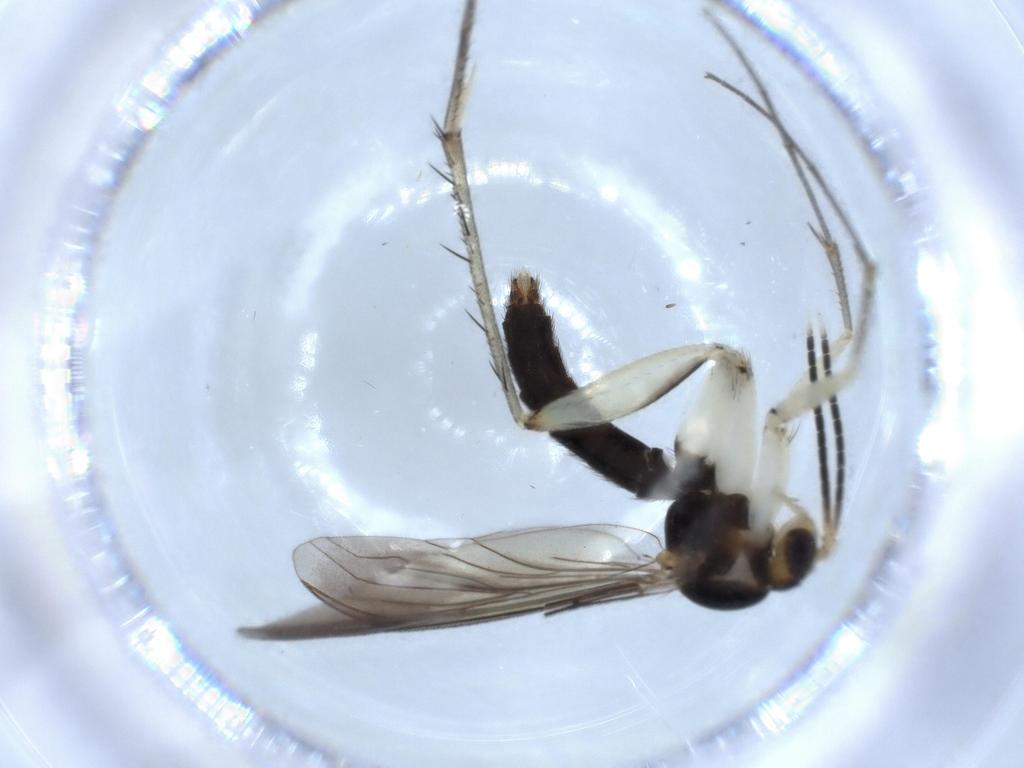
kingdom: Animalia
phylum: Arthropoda
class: Insecta
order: Diptera
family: Mycetophilidae
